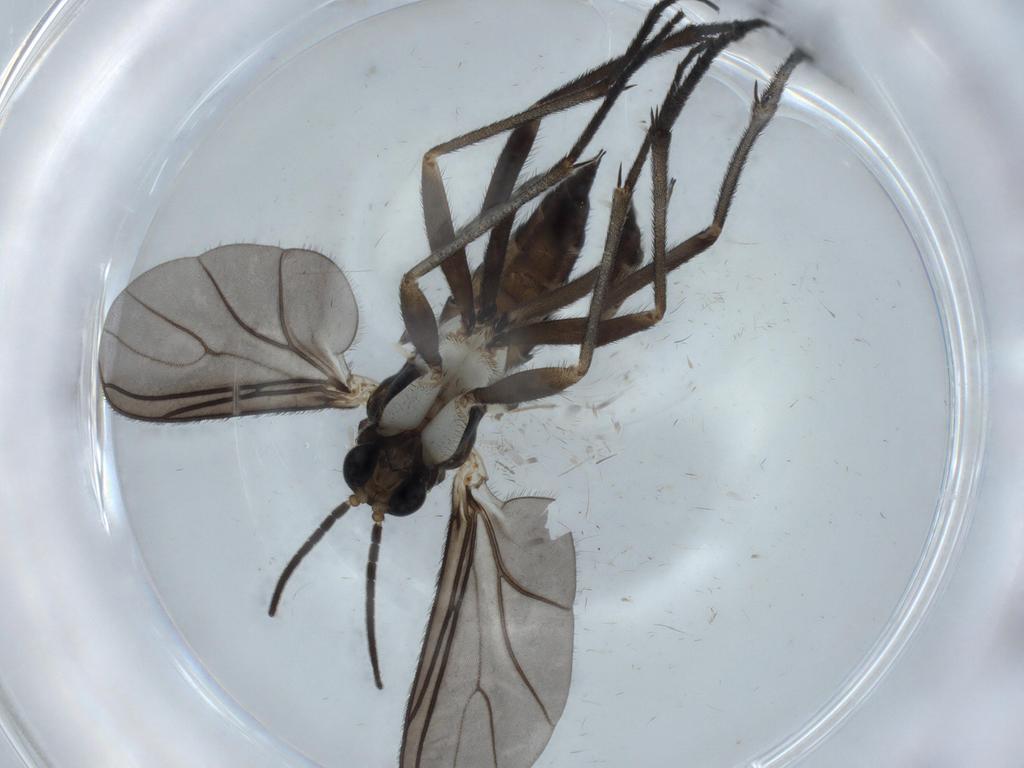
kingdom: Animalia
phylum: Arthropoda
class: Insecta
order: Diptera
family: Sciaridae
